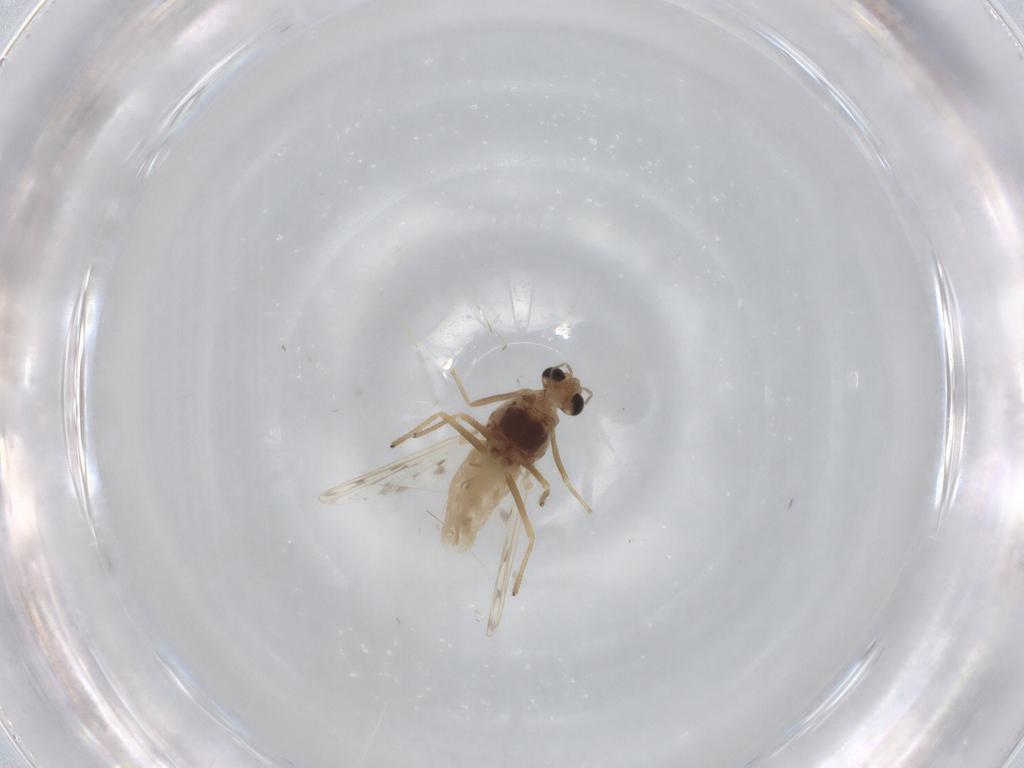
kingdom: Animalia
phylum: Arthropoda
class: Insecta
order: Diptera
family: Chironomidae
